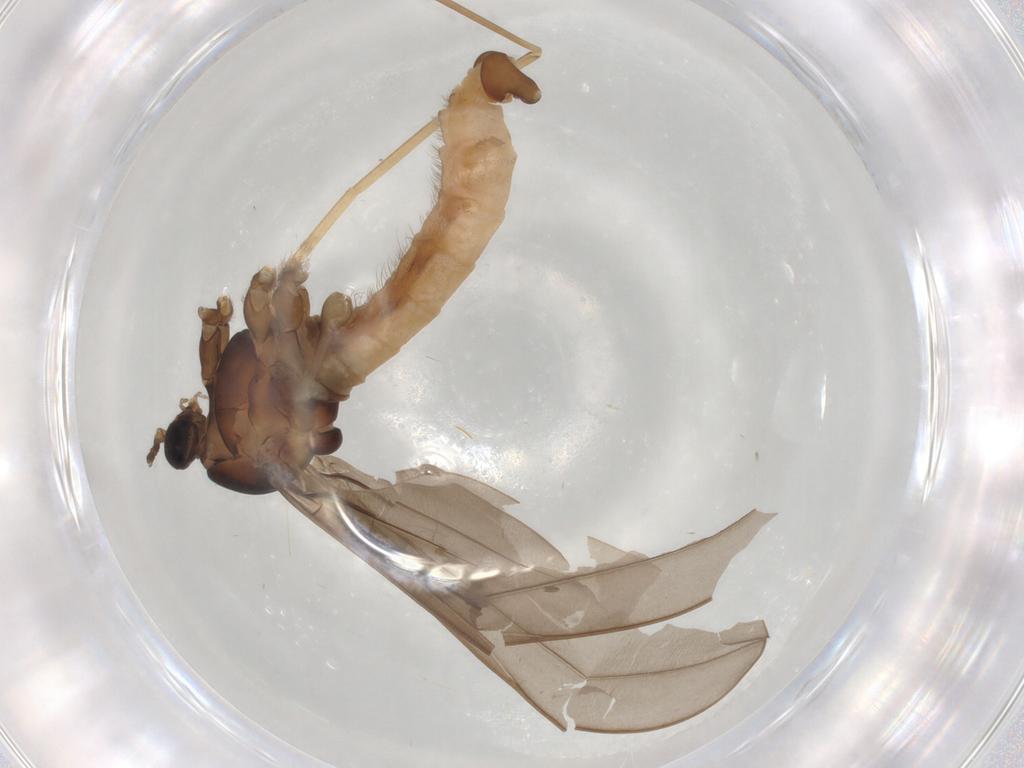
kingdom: Animalia
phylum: Arthropoda
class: Insecta
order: Diptera
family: Cecidomyiidae
